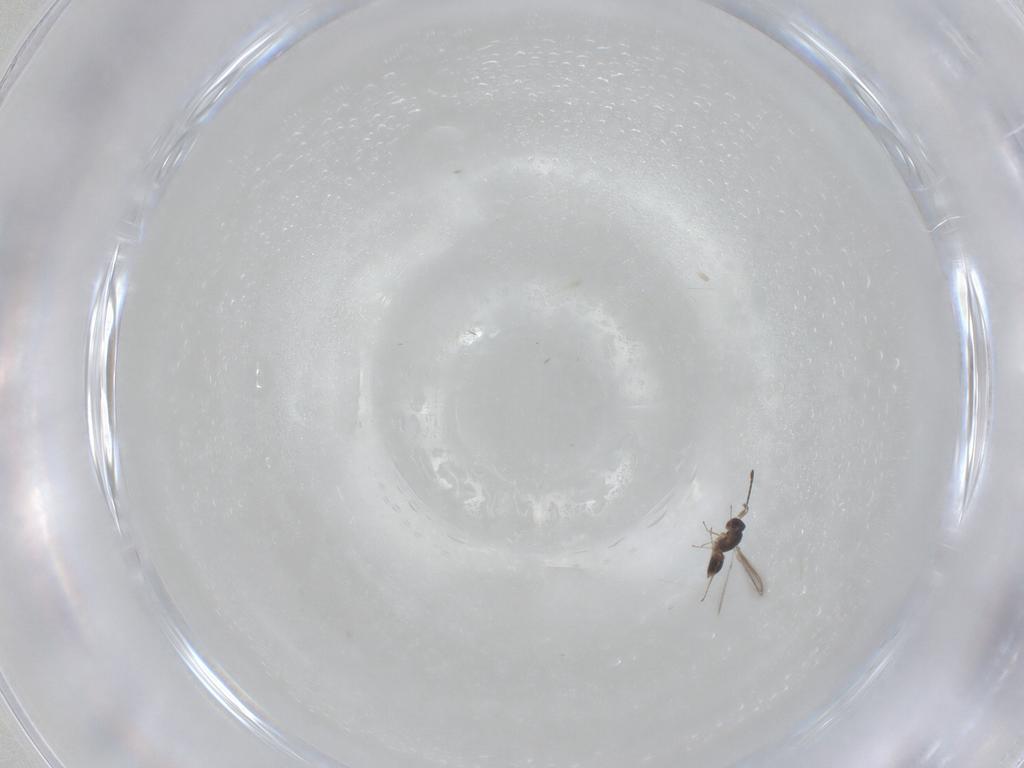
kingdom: Animalia
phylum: Arthropoda
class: Insecta
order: Hymenoptera
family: Mymaridae
